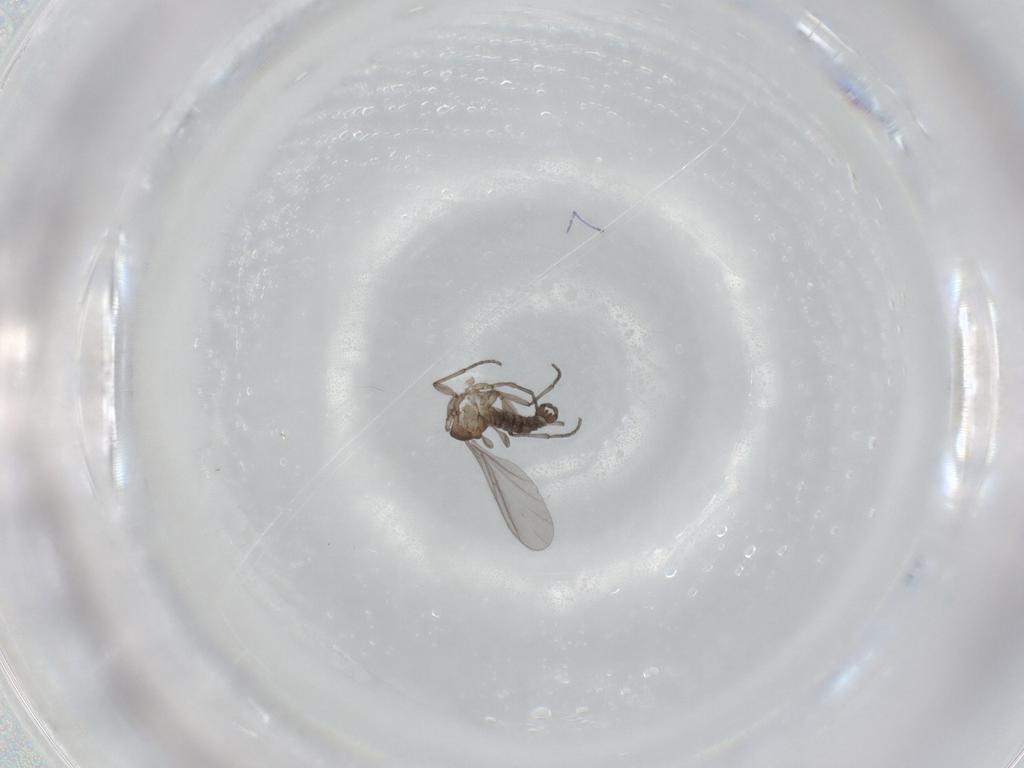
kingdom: Animalia
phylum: Arthropoda
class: Insecta
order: Diptera
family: Sciaridae
